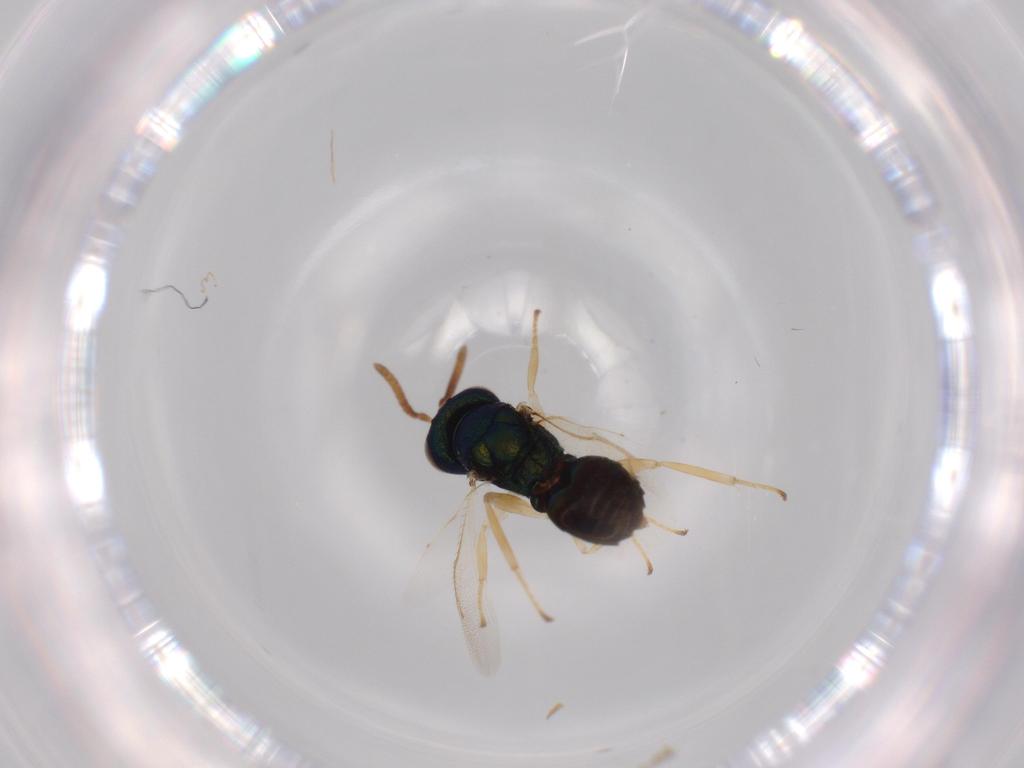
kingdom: Animalia
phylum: Arthropoda
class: Insecta
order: Hymenoptera
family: Pteromalidae
